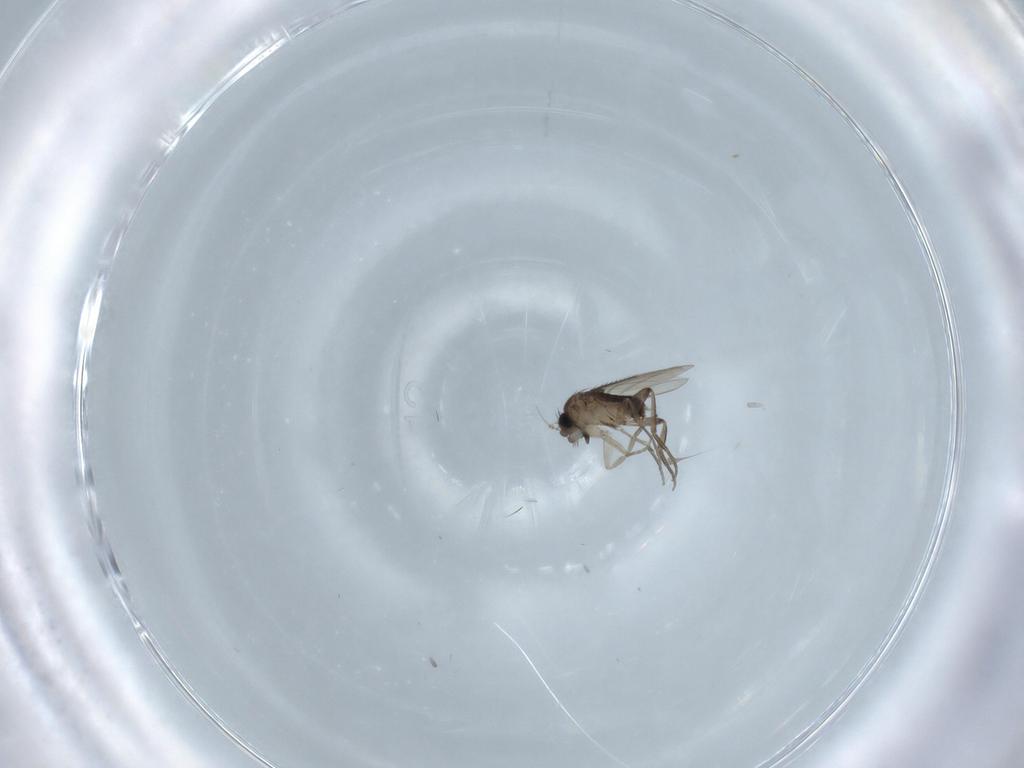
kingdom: Animalia
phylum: Arthropoda
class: Insecta
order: Diptera
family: Phoridae
